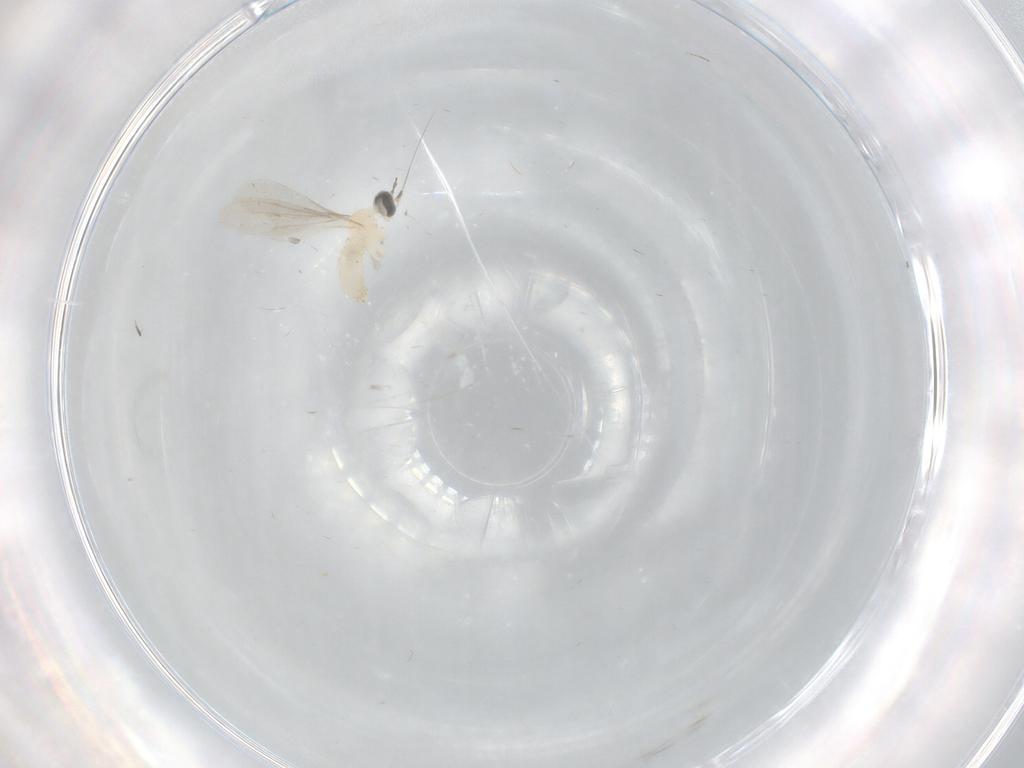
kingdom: Animalia
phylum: Arthropoda
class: Insecta
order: Diptera
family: Cecidomyiidae
